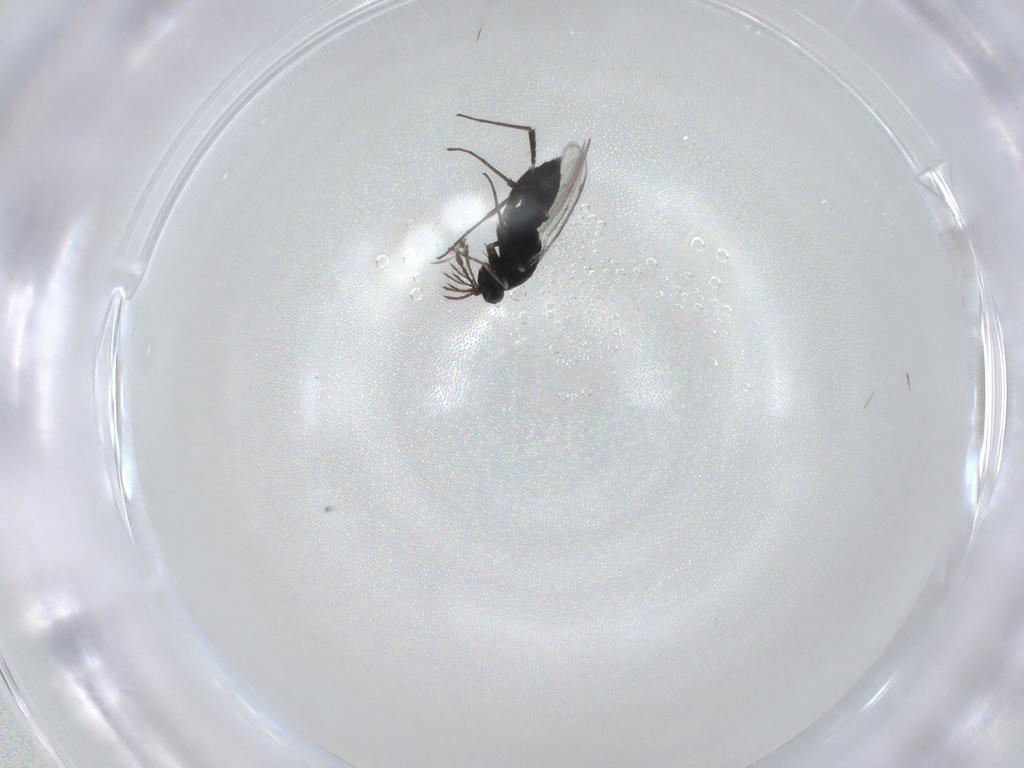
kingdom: Animalia
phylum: Arthropoda
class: Insecta
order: Hymenoptera
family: Eulophidae
